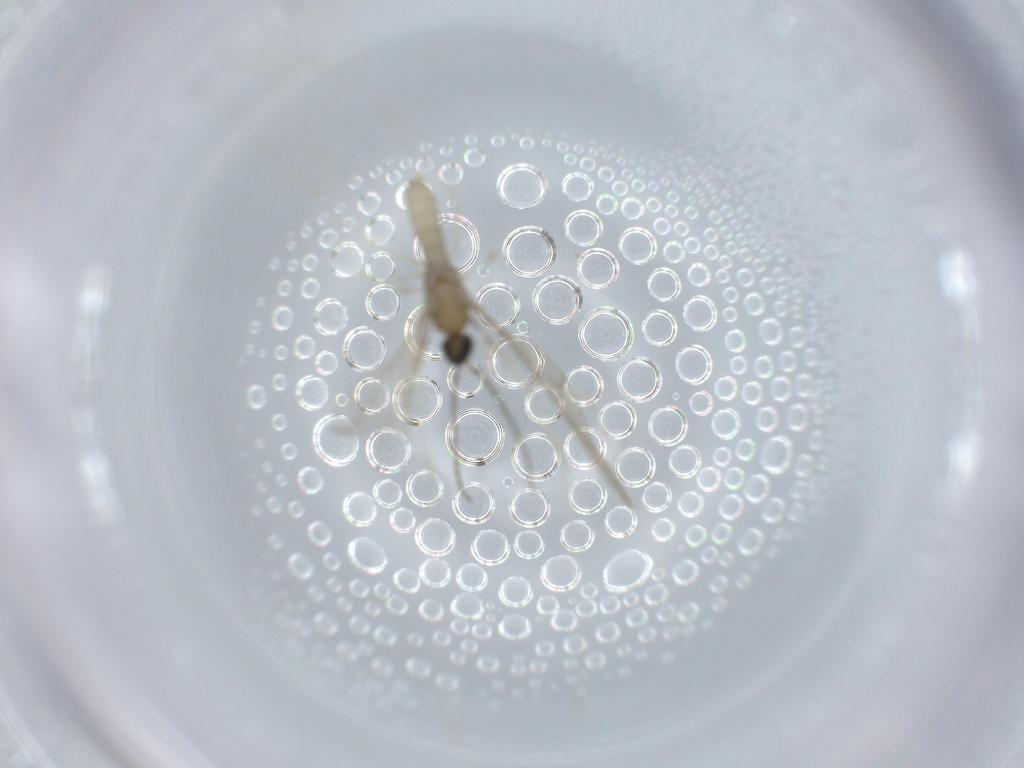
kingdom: Animalia
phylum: Arthropoda
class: Insecta
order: Diptera
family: Cecidomyiidae
